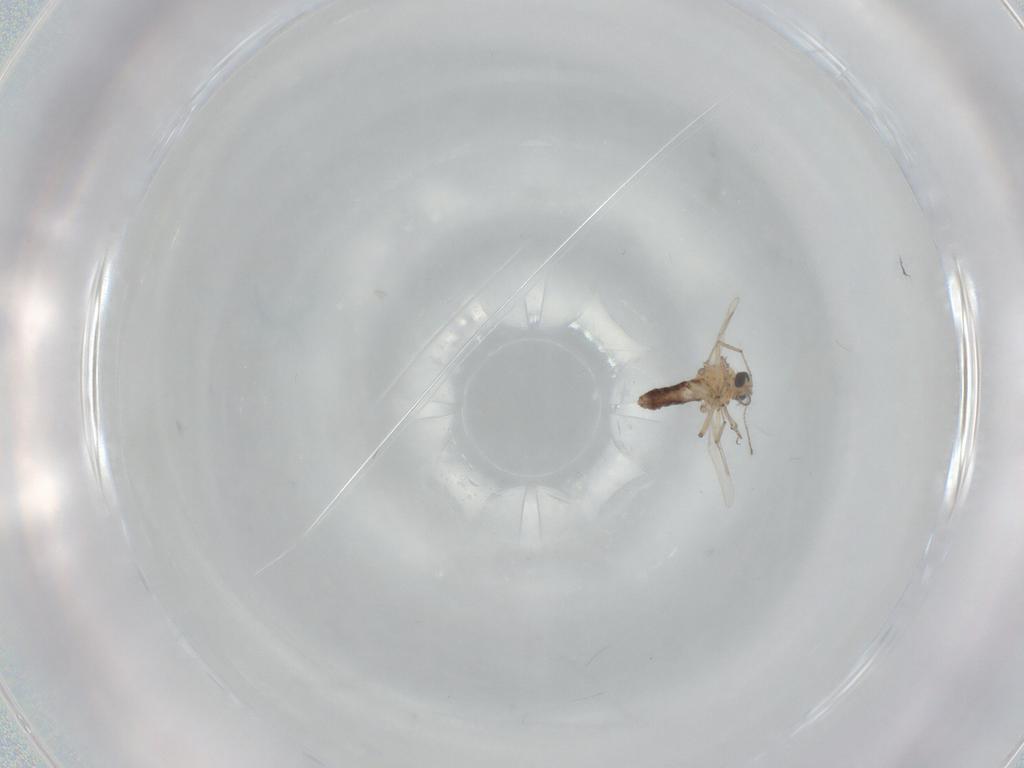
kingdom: Animalia
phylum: Arthropoda
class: Insecta
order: Diptera
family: Ceratopogonidae
